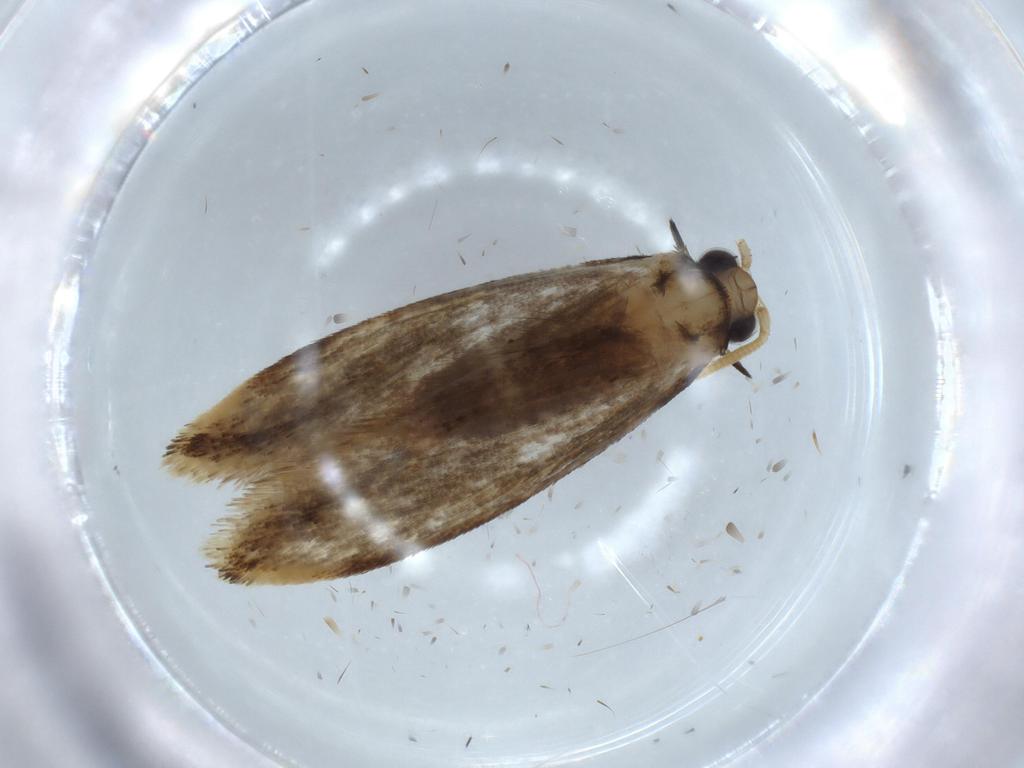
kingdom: Animalia
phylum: Arthropoda
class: Insecta
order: Lepidoptera
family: Tineidae
